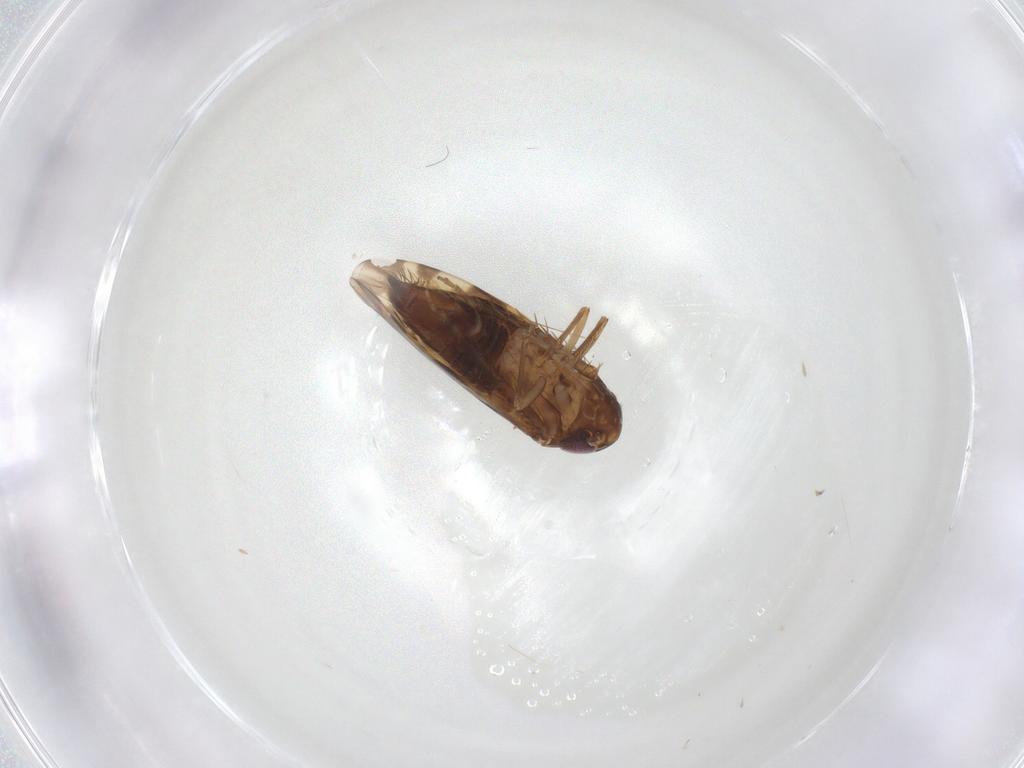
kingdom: Animalia
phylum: Arthropoda
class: Insecta
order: Hemiptera
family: Cicadellidae
